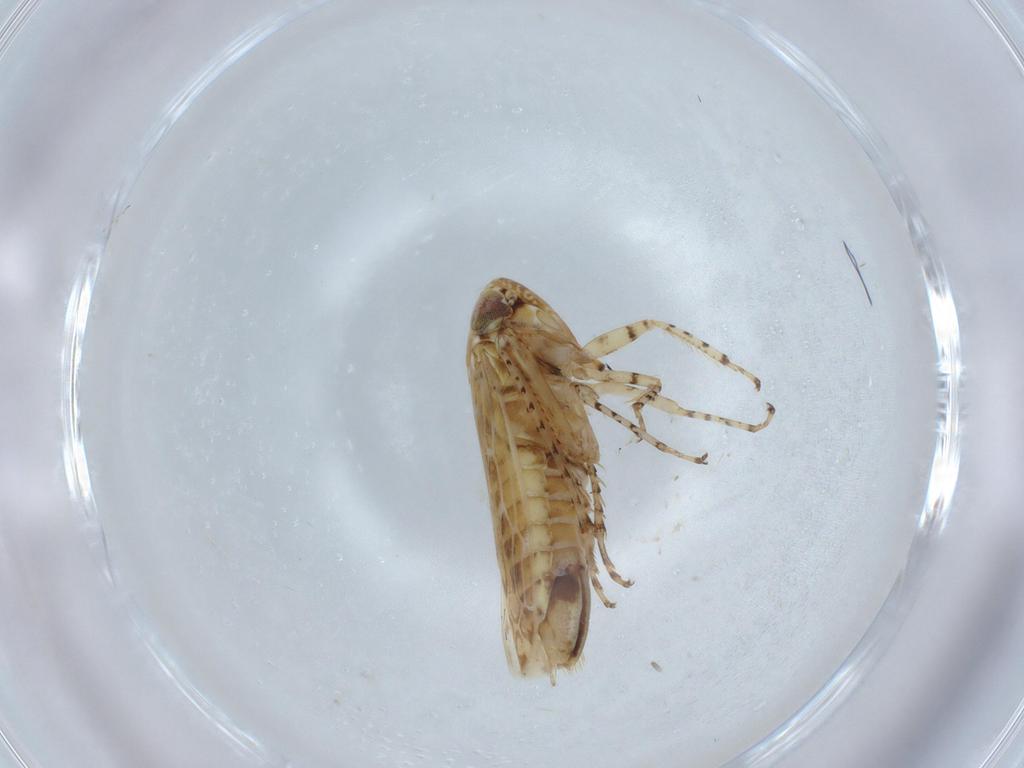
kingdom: Animalia
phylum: Arthropoda
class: Insecta
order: Hemiptera
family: Cicadellidae
